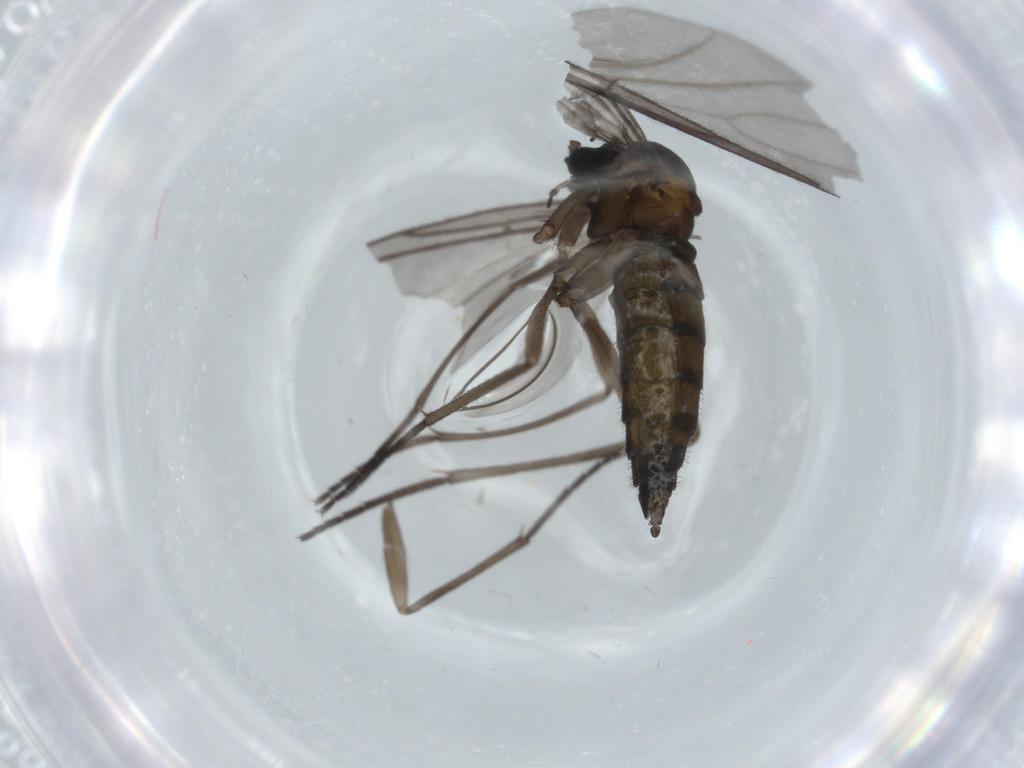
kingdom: Animalia
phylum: Arthropoda
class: Insecta
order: Diptera
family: Sciaridae
